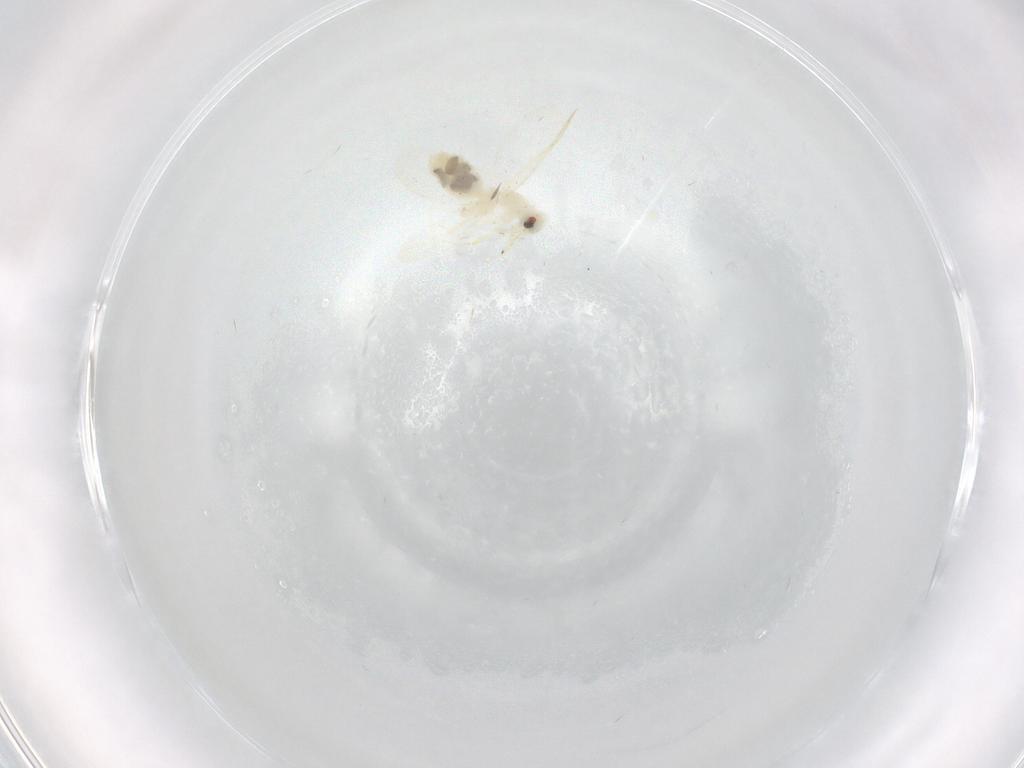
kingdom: Animalia
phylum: Arthropoda
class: Insecta
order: Hemiptera
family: Aleyrodidae
